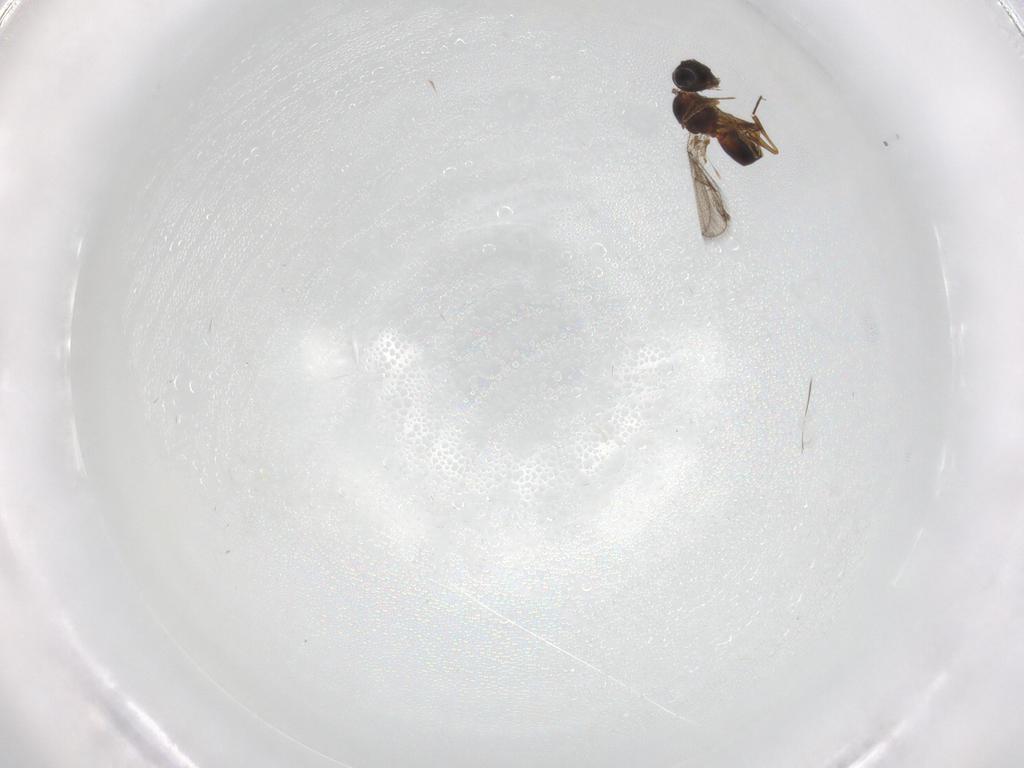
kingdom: Animalia
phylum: Arthropoda
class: Insecta
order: Hymenoptera
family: Figitidae
